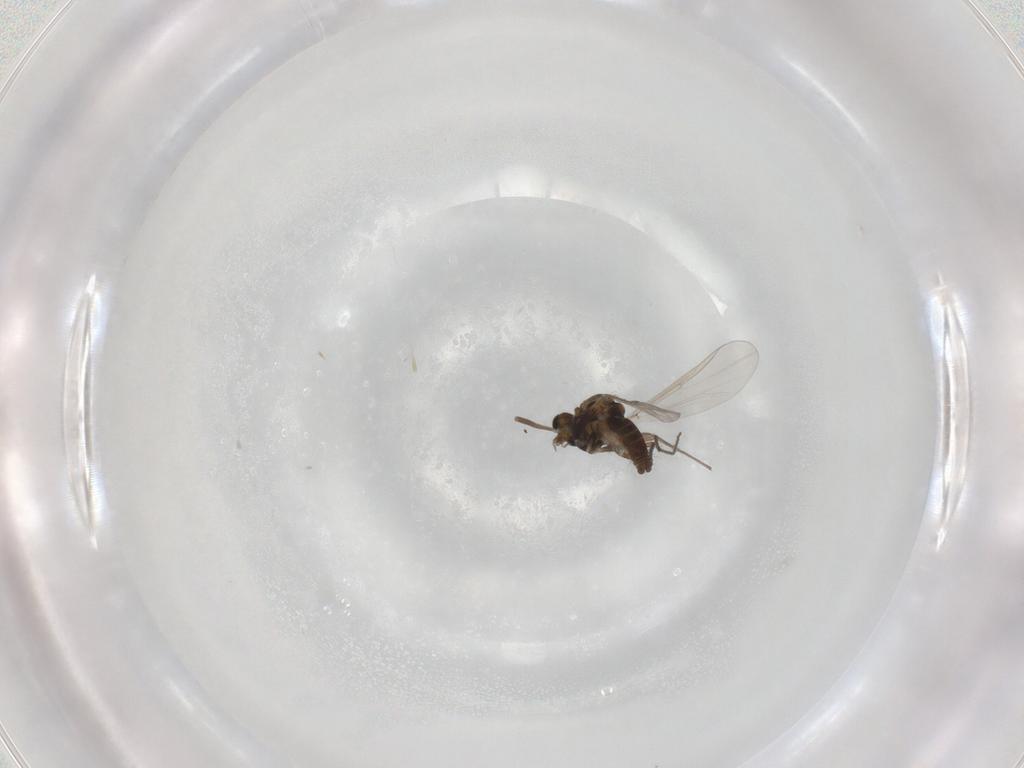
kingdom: Animalia
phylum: Arthropoda
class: Insecta
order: Diptera
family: Chironomidae
